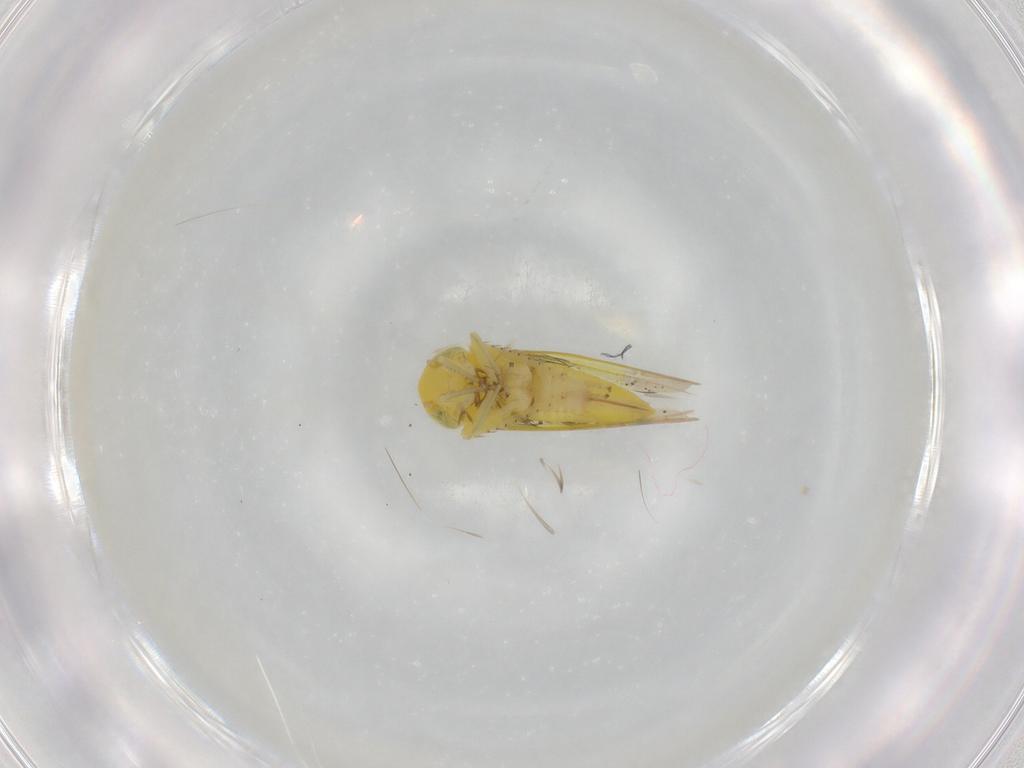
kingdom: Animalia
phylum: Arthropoda
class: Insecta
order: Hemiptera
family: Cicadellidae
